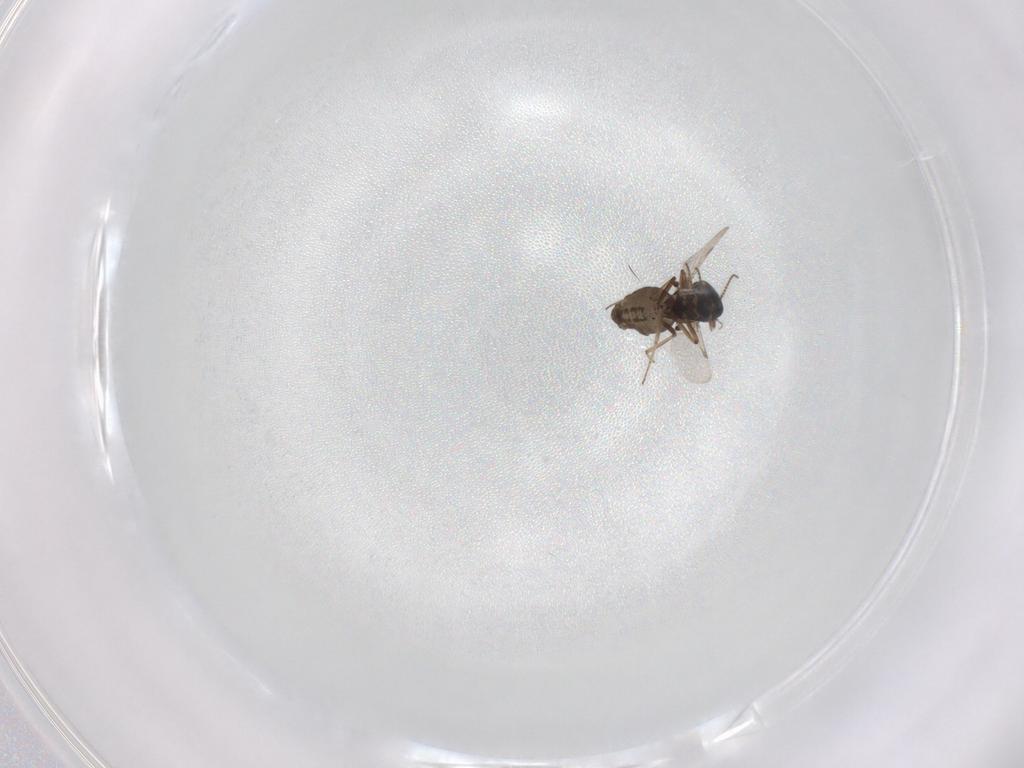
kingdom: Animalia
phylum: Arthropoda
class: Insecta
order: Diptera
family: Ceratopogonidae
